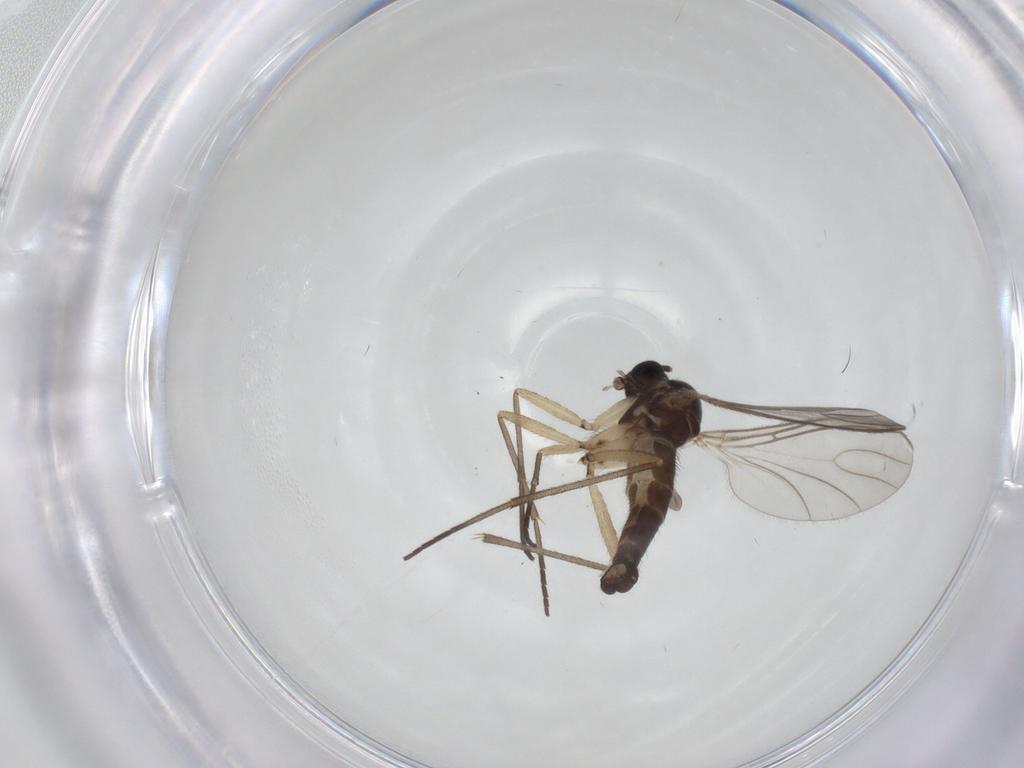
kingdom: Animalia
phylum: Arthropoda
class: Insecta
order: Diptera
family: Sciaridae
